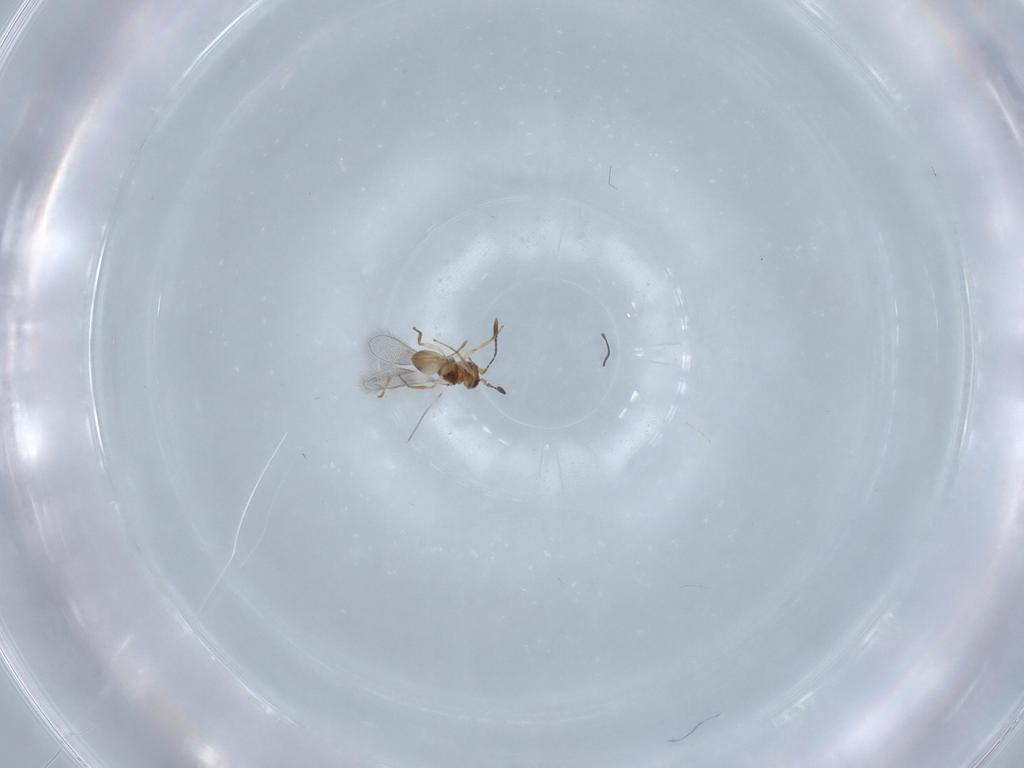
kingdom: Animalia
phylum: Arthropoda
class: Insecta
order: Hymenoptera
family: Mymaridae
